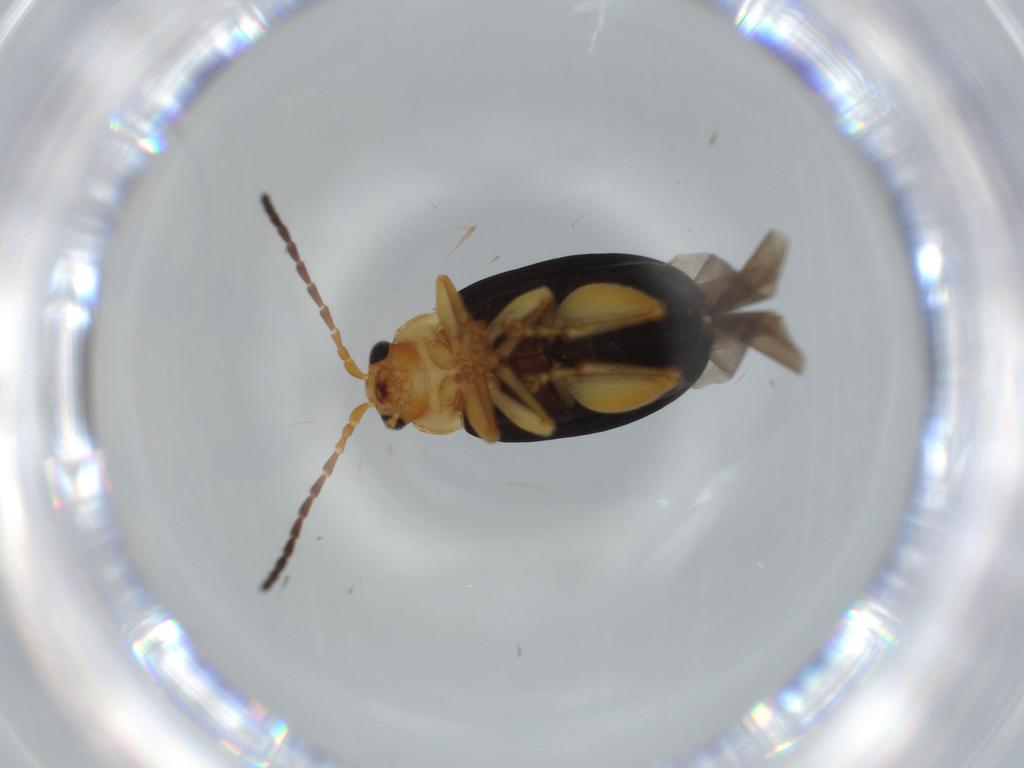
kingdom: Animalia
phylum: Arthropoda
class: Insecta
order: Coleoptera
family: Chrysomelidae
